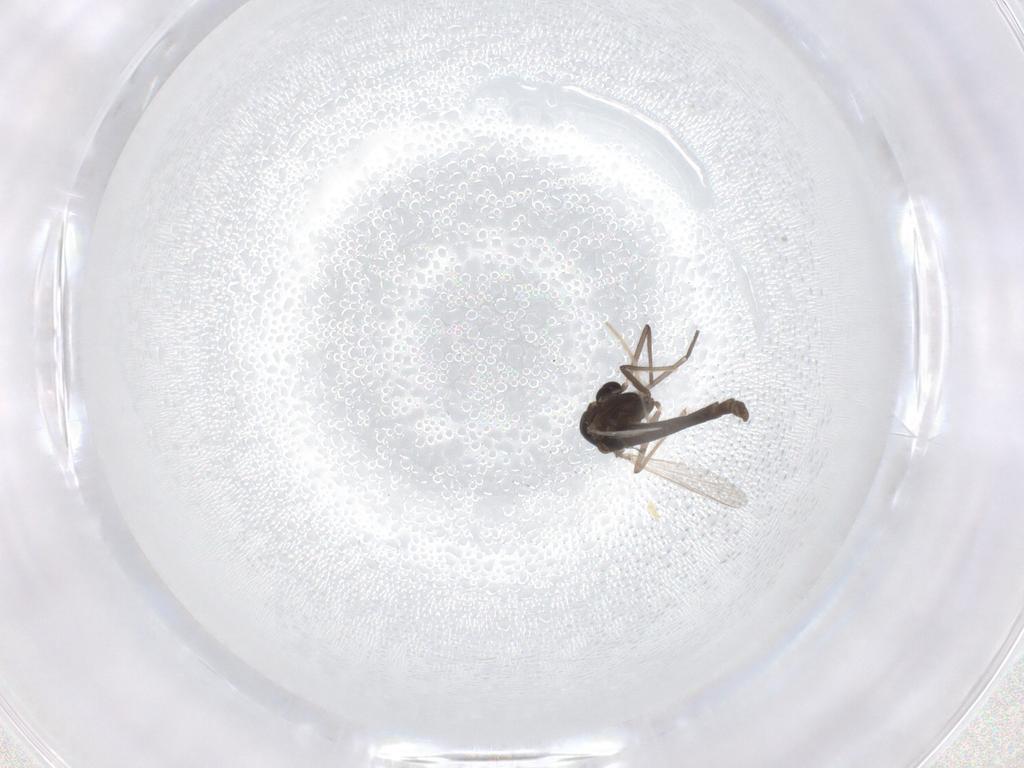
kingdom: Animalia
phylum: Arthropoda
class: Insecta
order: Diptera
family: Chironomidae
